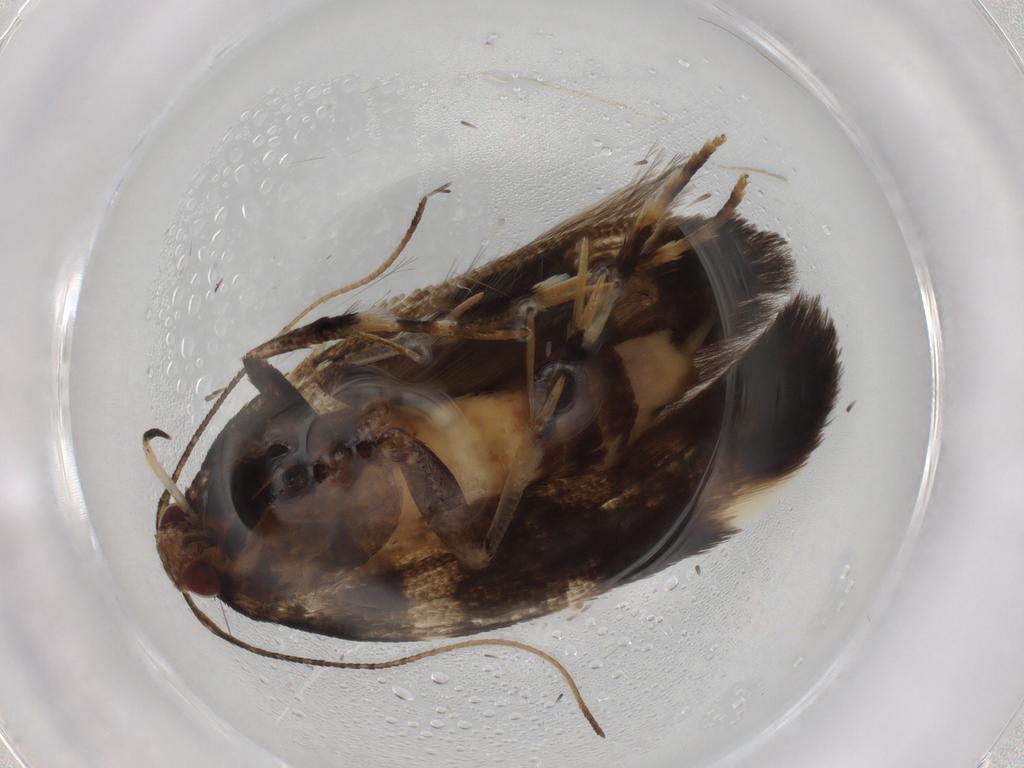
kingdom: Animalia
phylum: Arthropoda
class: Insecta
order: Lepidoptera
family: Cosmopterigidae
